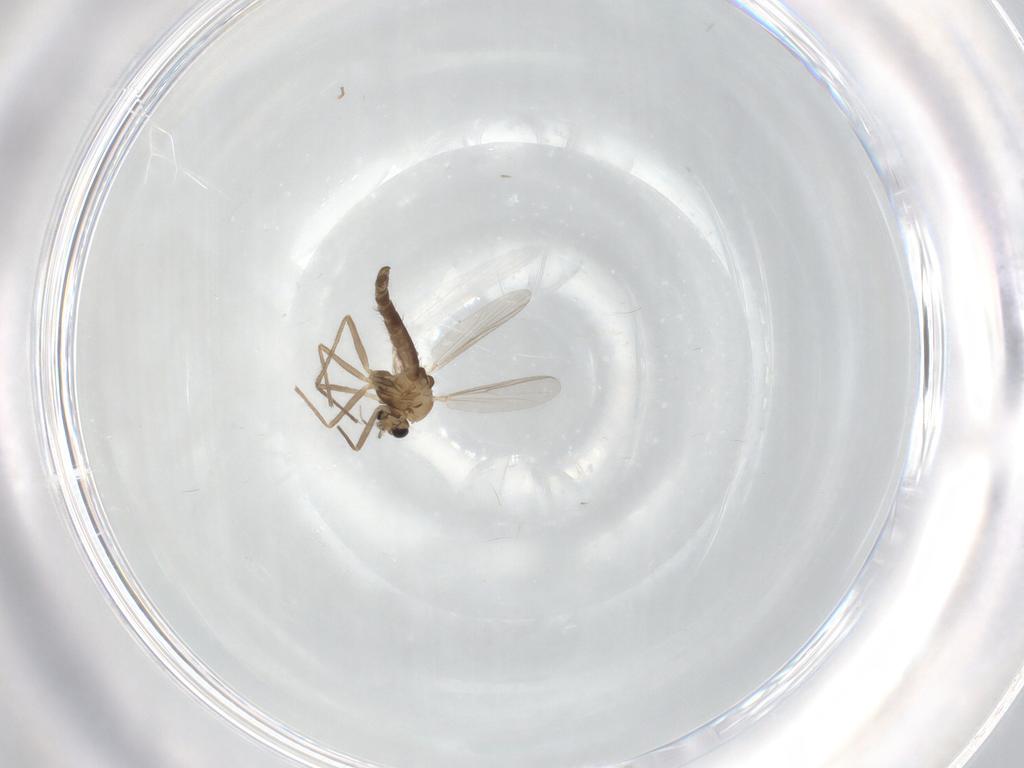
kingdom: Animalia
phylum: Arthropoda
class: Insecta
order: Diptera
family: Chironomidae
